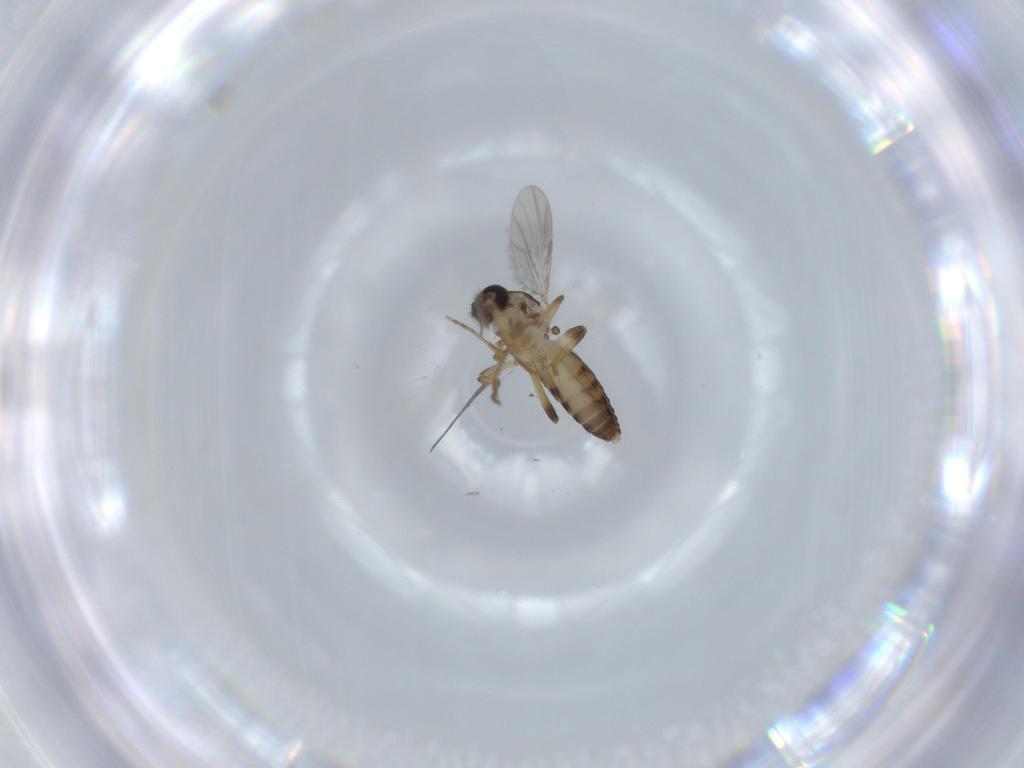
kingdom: Animalia
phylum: Arthropoda
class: Insecta
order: Diptera
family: Ceratopogonidae
